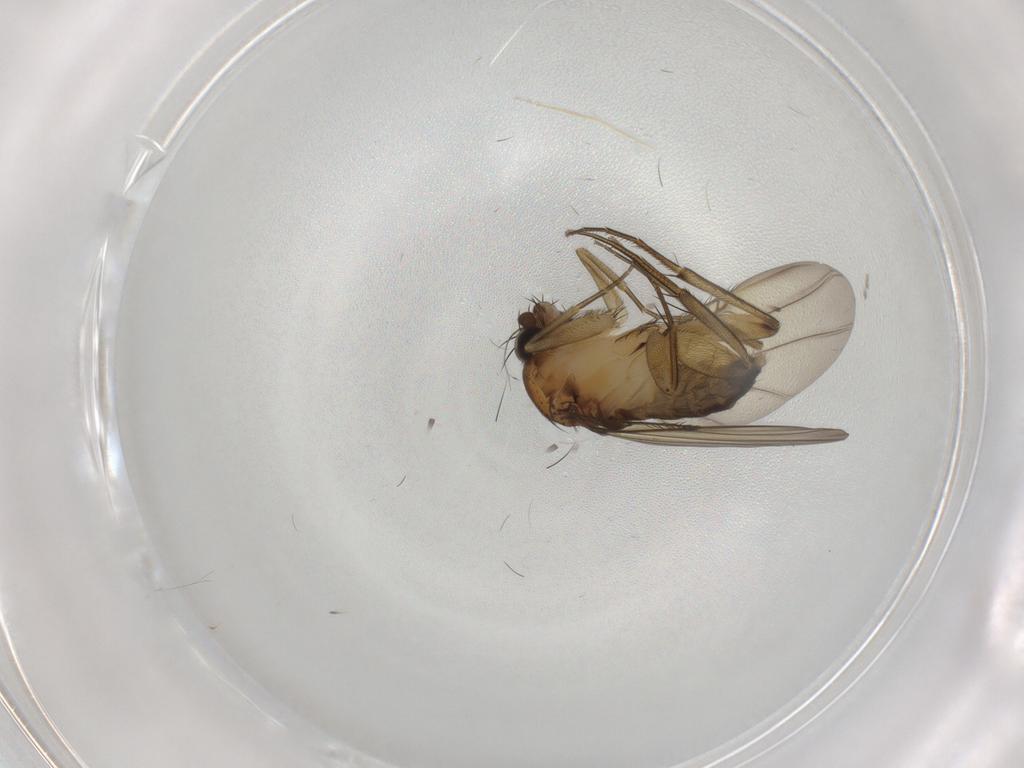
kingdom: Animalia
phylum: Arthropoda
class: Insecta
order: Diptera
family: Phoridae
